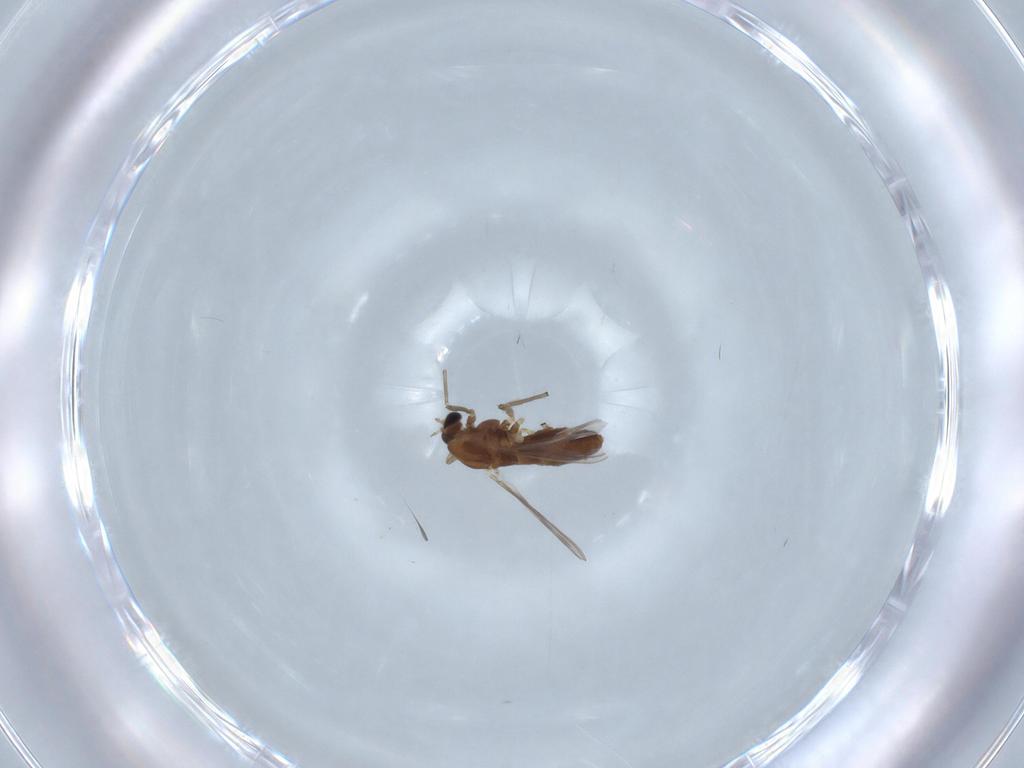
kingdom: Animalia
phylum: Arthropoda
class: Insecta
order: Diptera
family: Chironomidae
